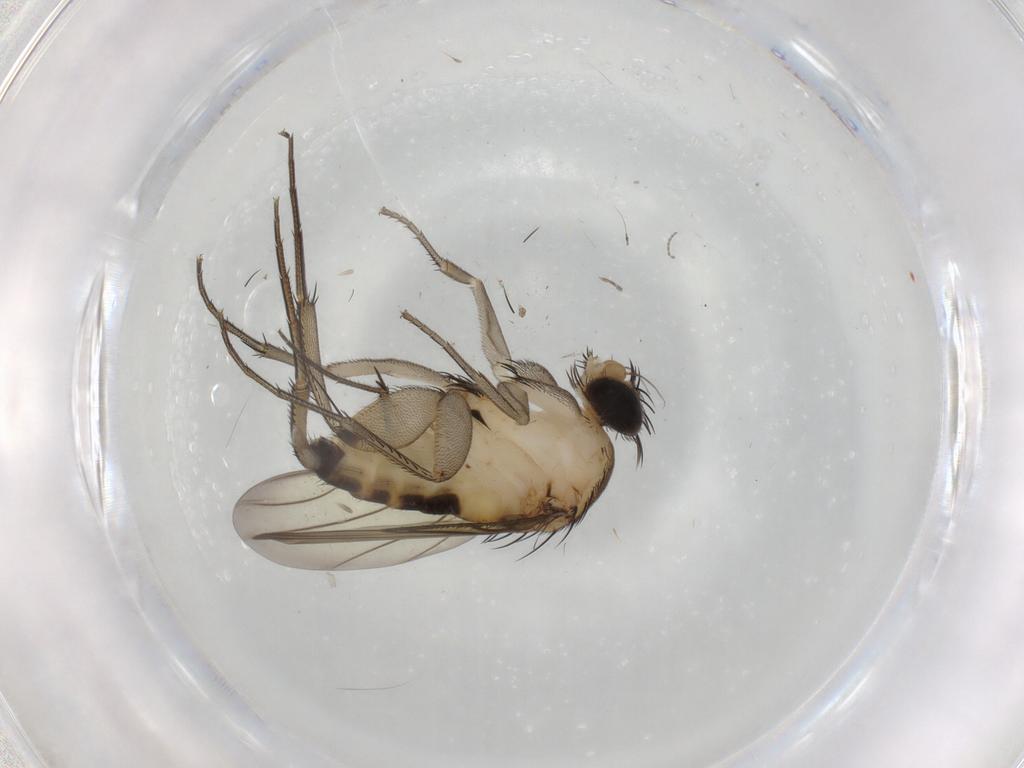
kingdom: Animalia
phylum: Arthropoda
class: Insecta
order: Diptera
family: Phoridae
